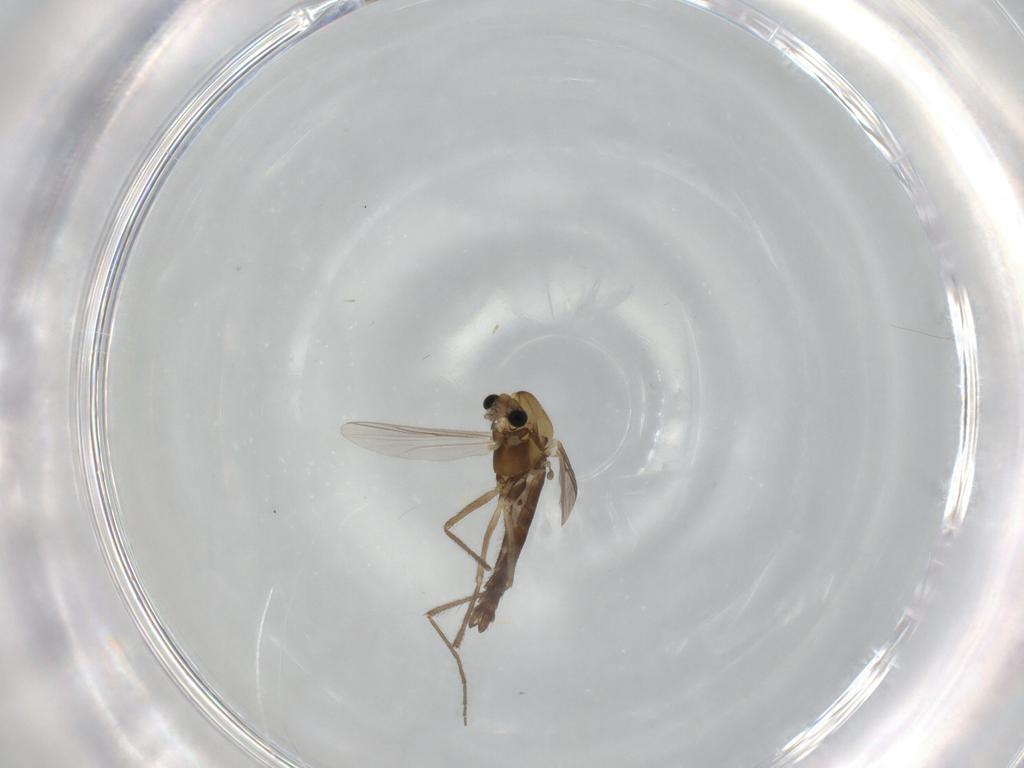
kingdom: Animalia
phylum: Arthropoda
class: Insecta
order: Diptera
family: Chironomidae
